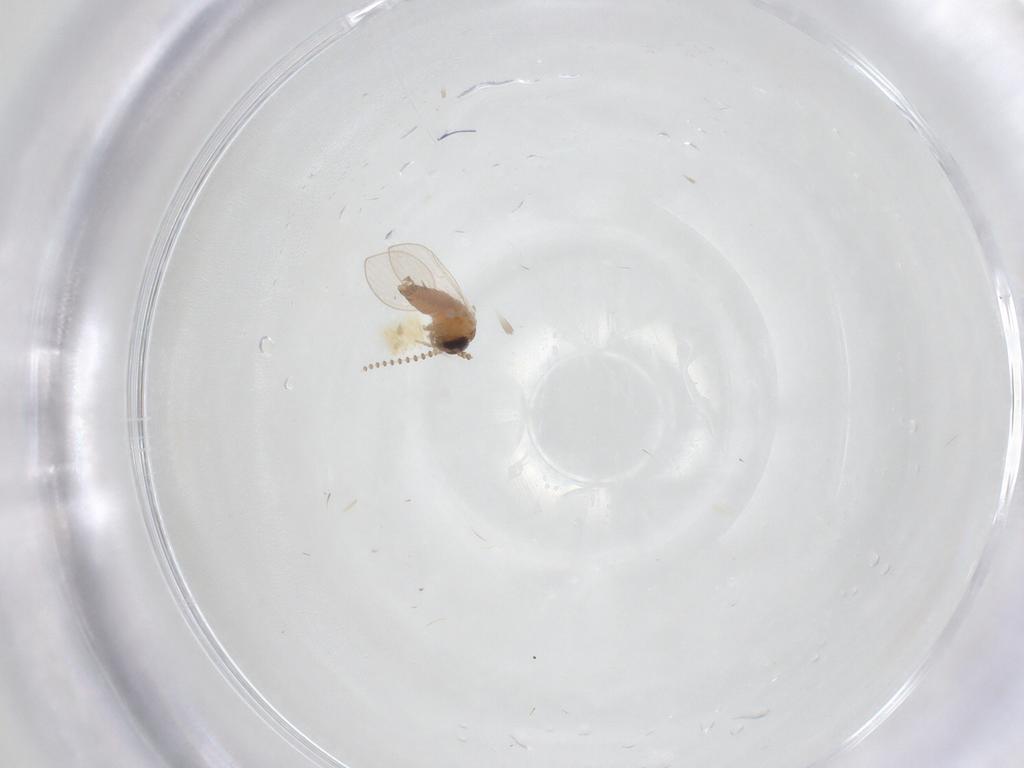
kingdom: Animalia
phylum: Arthropoda
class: Insecta
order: Diptera
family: Psychodidae
